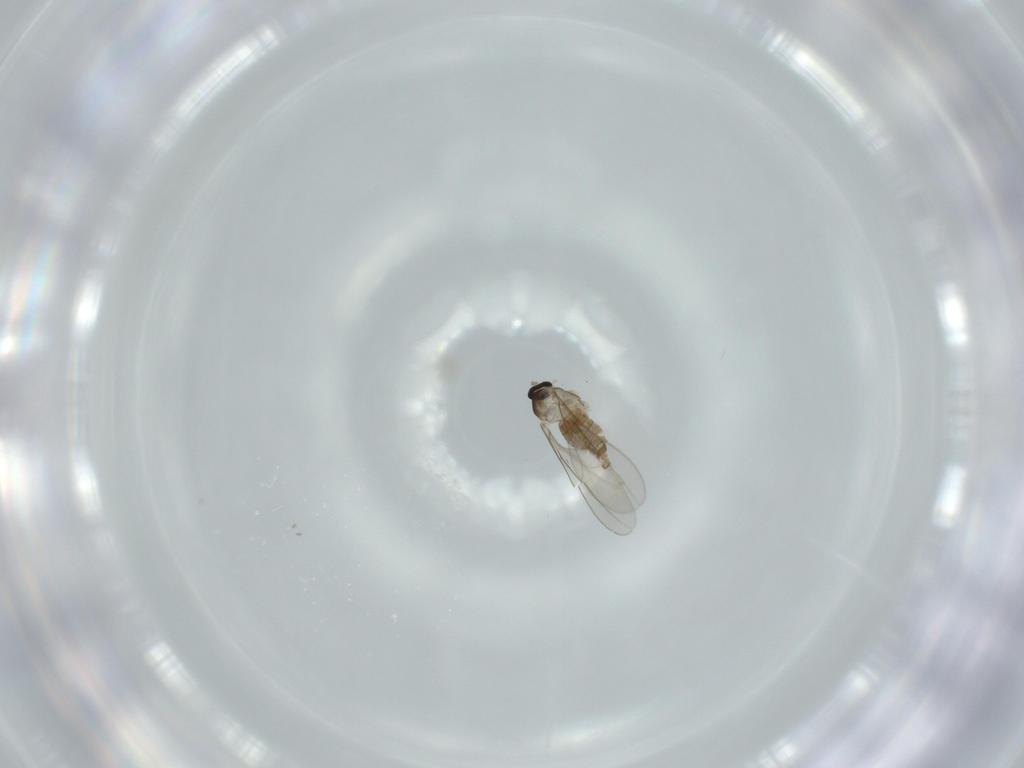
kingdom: Animalia
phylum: Arthropoda
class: Insecta
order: Diptera
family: Cecidomyiidae
